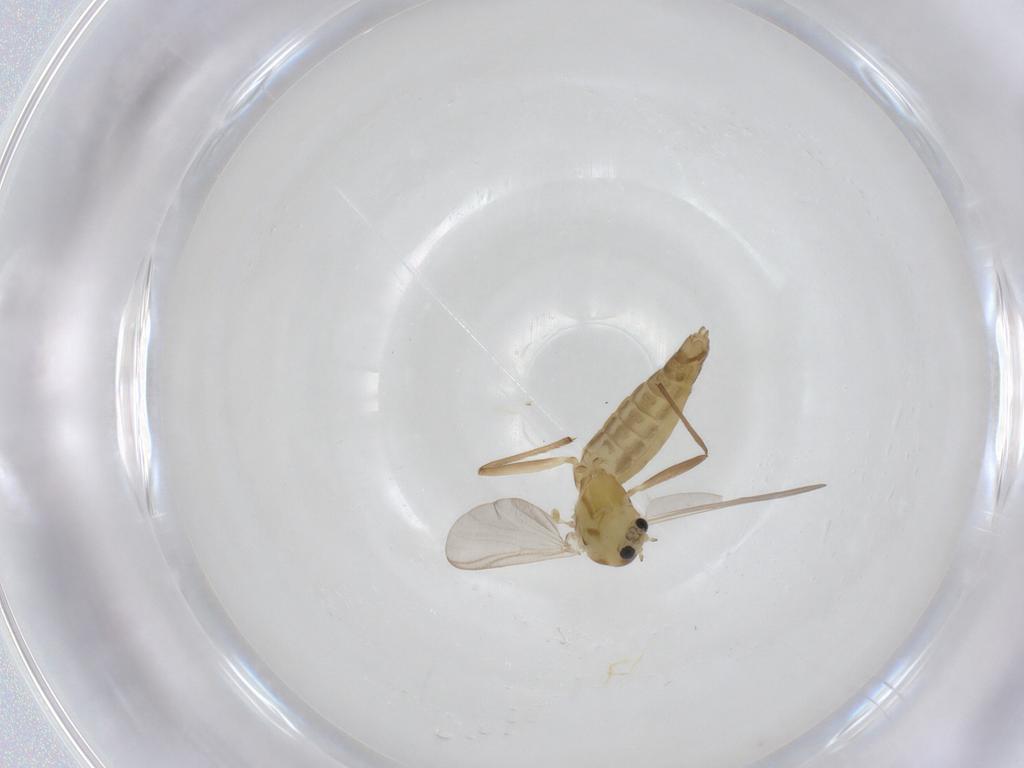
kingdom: Animalia
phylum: Arthropoda
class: Insecta
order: Diptera
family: Chironomidae
